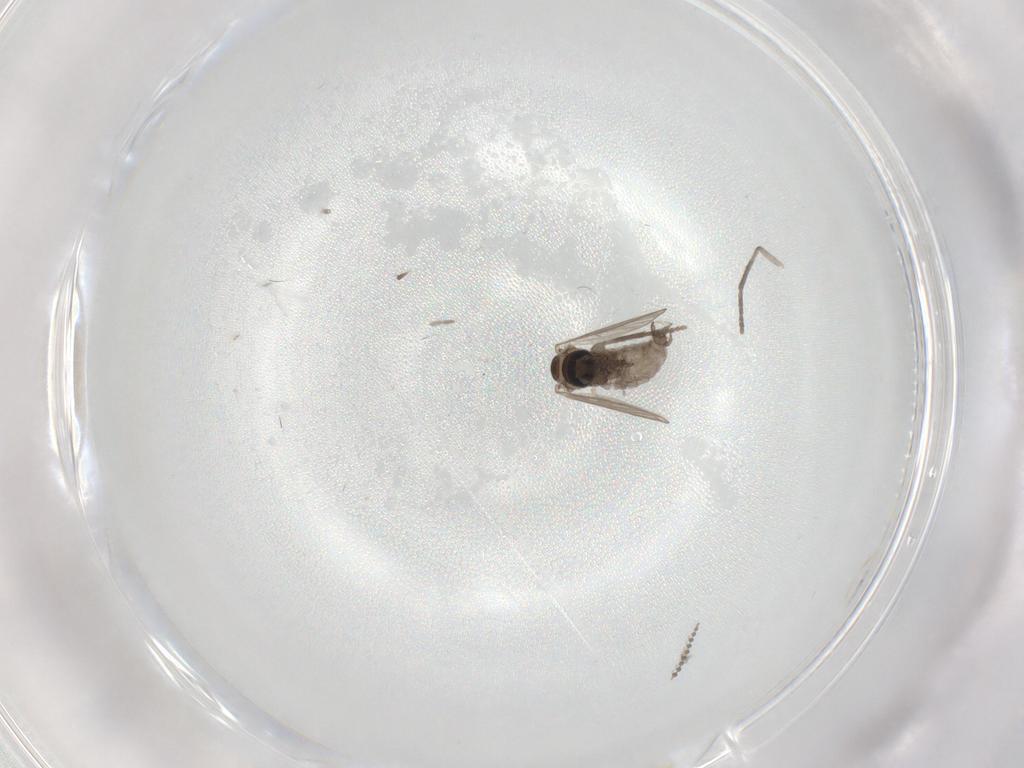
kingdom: Animalia
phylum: Arthropoda
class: Insecta
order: Diptera
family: Psychodidae
